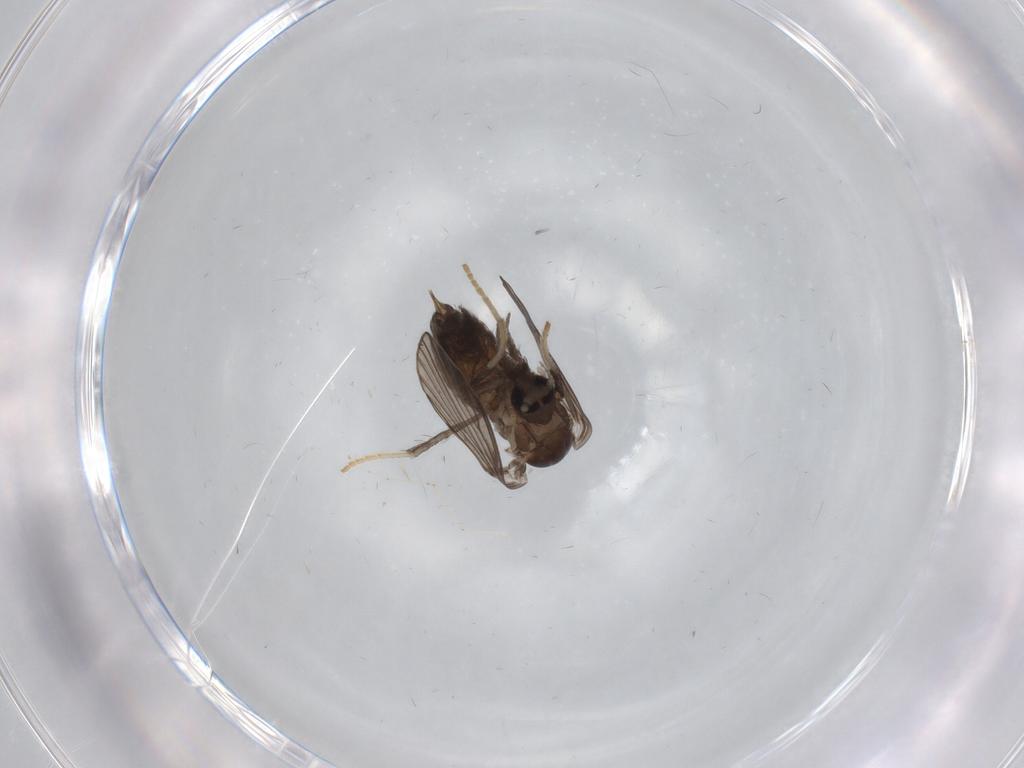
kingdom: Animalia
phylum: Arthropoda
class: Insecta
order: Diptera
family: Psychodidae
